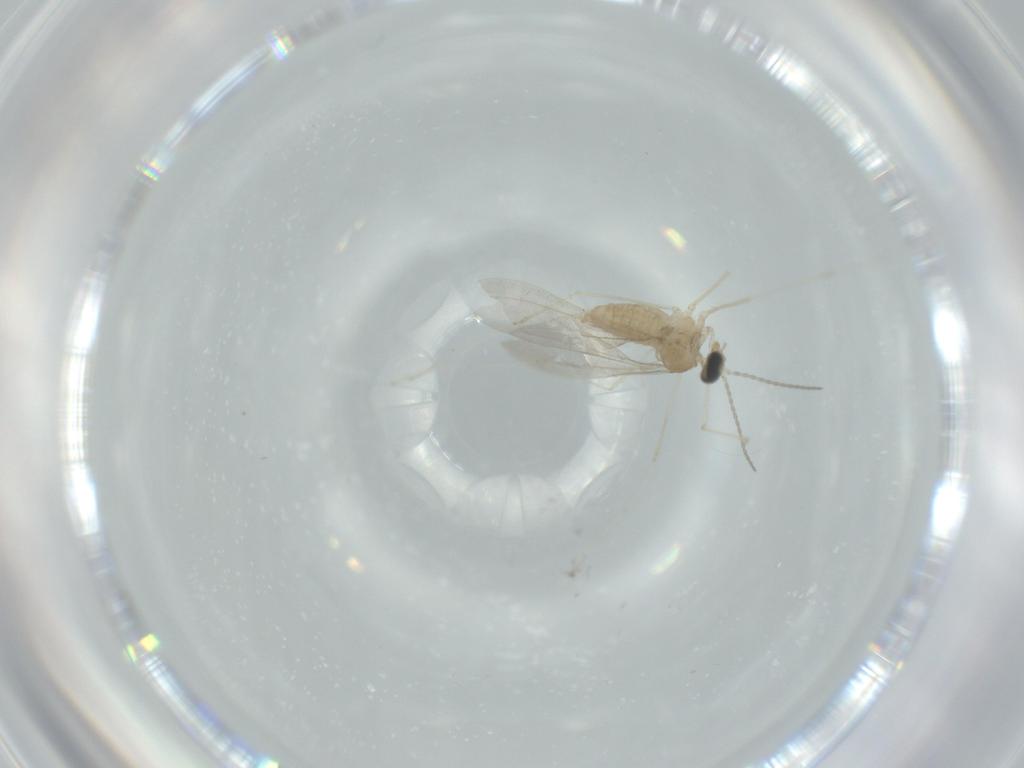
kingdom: Animalia
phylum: Arthropoda
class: Insecta
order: Diptera
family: Cecidomyiidae
